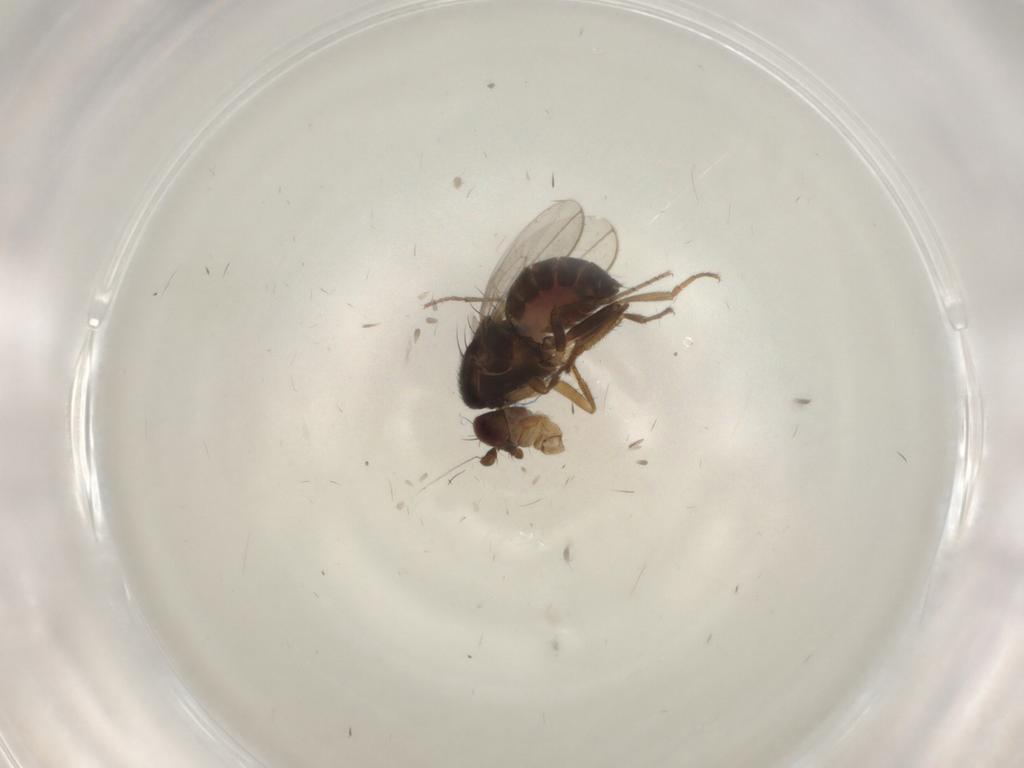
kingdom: Animalia
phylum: Arthropoda
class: Insecta
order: Diptera
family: Sphaeroceridae
